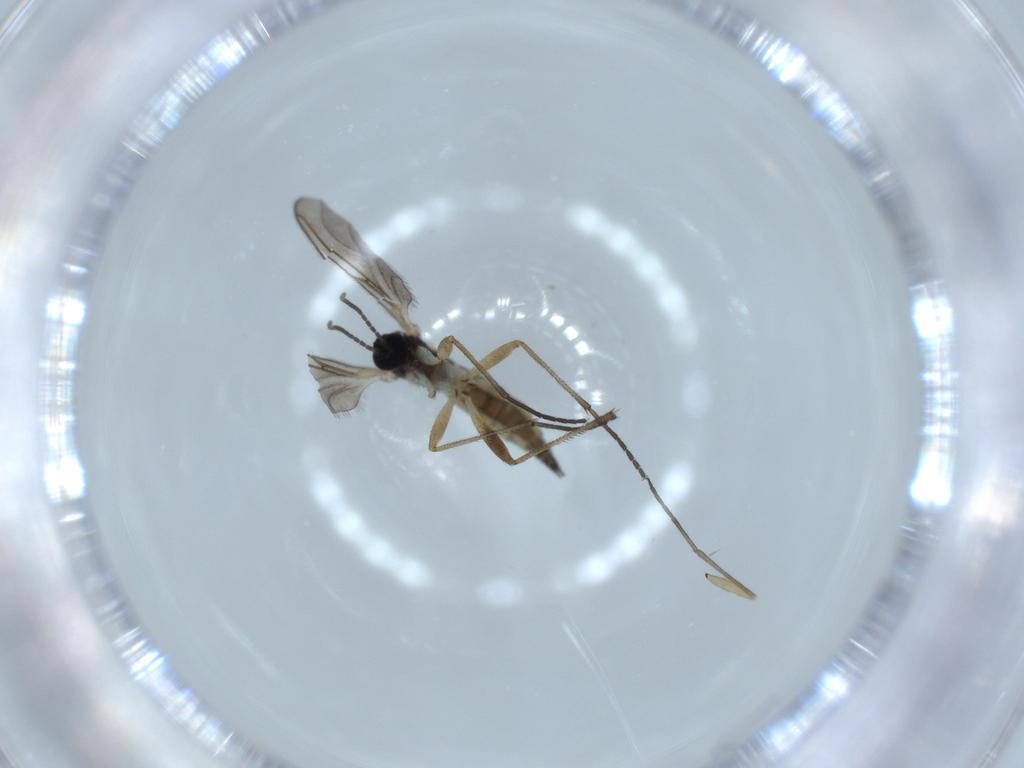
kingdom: Animalia
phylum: Arthropoda
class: Insecta
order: Diptera
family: Sciaridae
